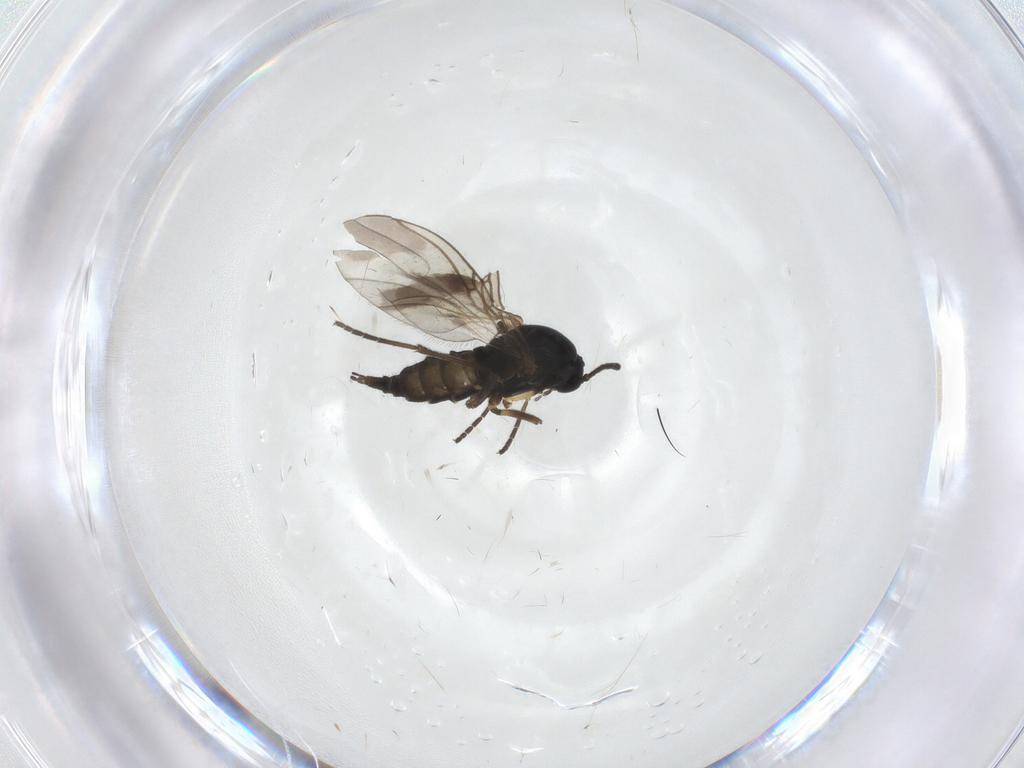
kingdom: Animalia
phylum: Arthropoda
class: Insecta
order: Diptera
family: Sciaridae
